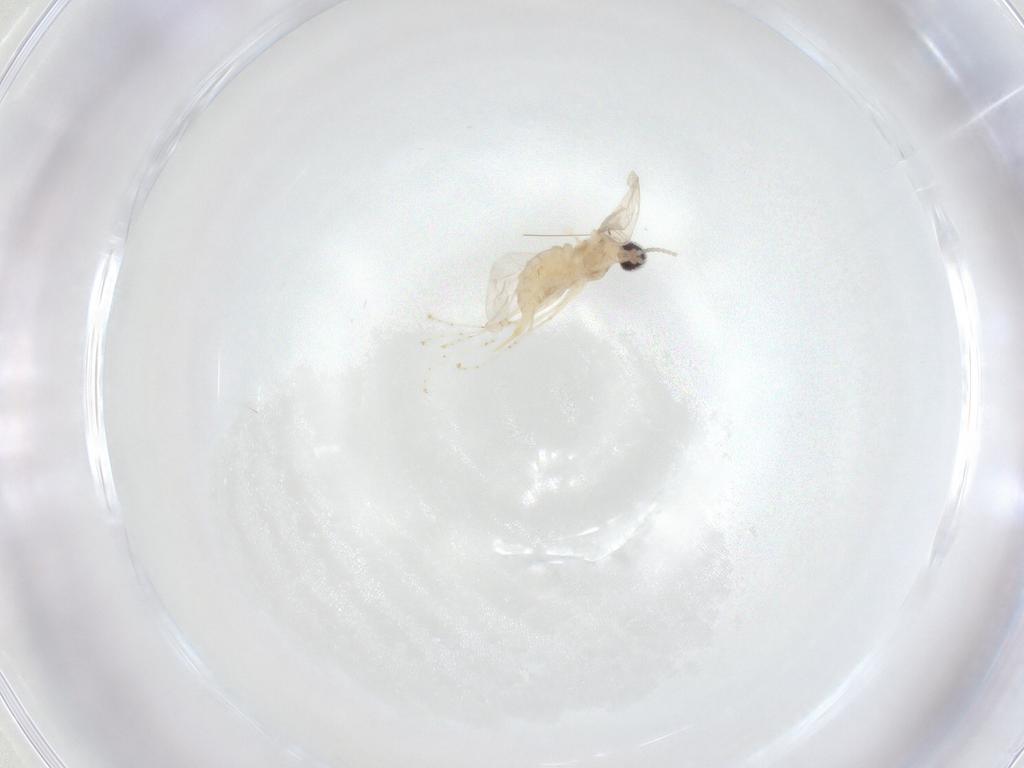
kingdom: Animalia
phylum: Arthropoda
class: Insecta
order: Diptera
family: Cecidomyiidae
